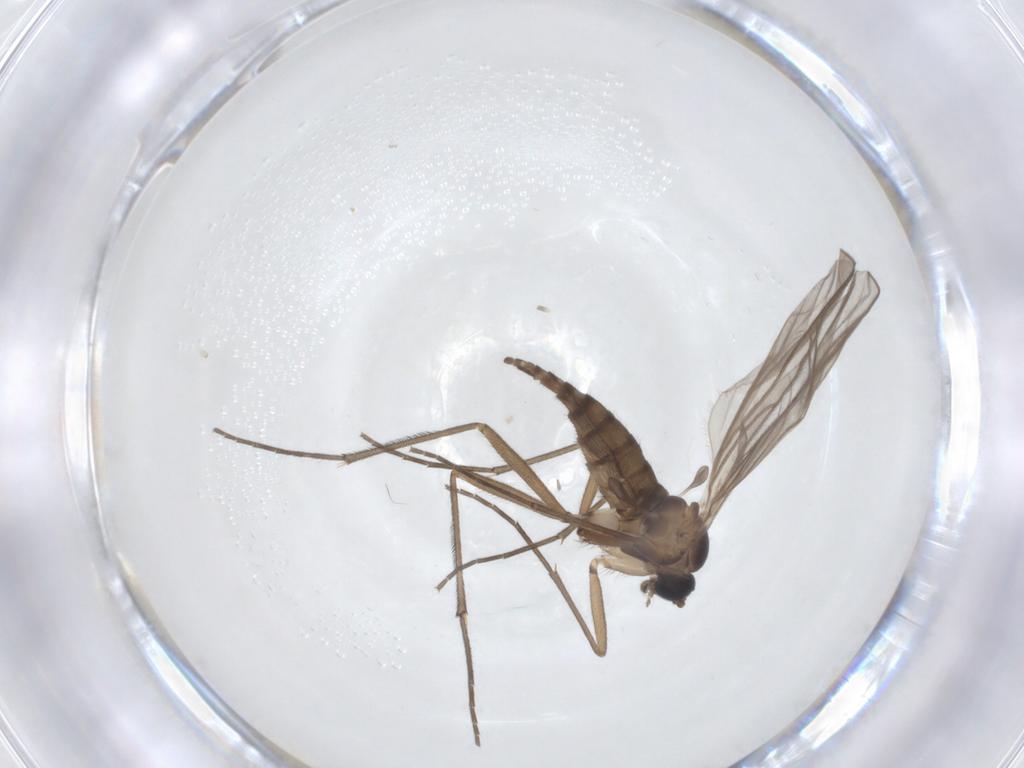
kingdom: Animalia
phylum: Arthropoda
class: Insecta
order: Diptera
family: Sciaridae
